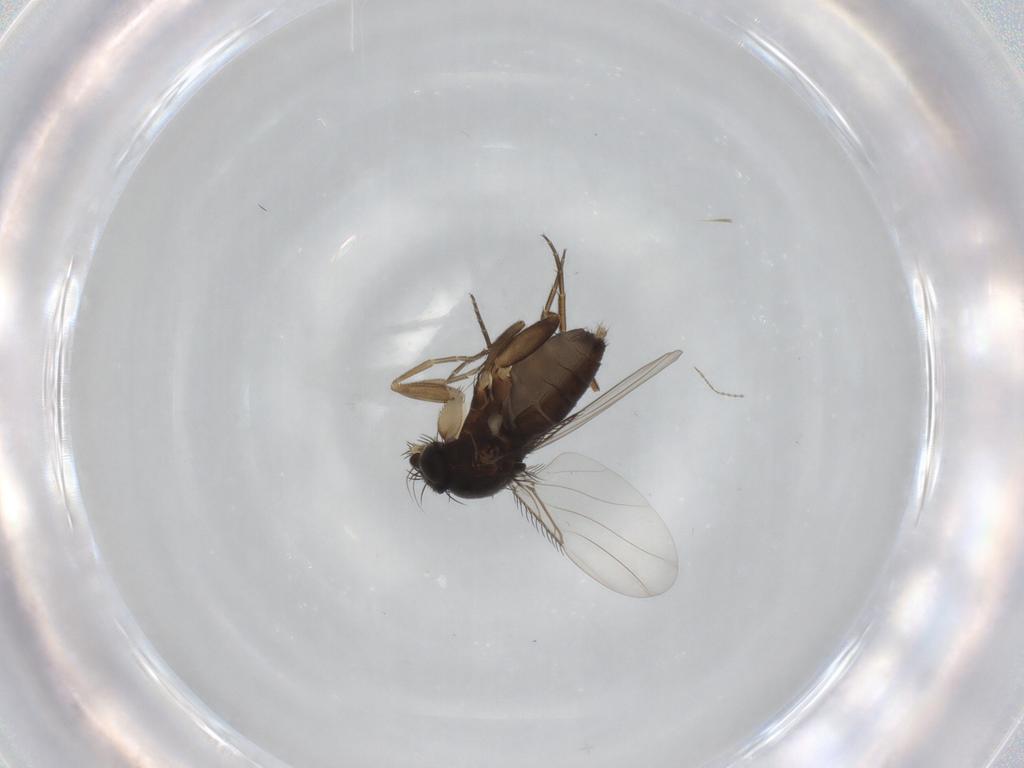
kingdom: Animalia
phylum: Arthropoda
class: Insecta
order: Diptera
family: Phoridae
